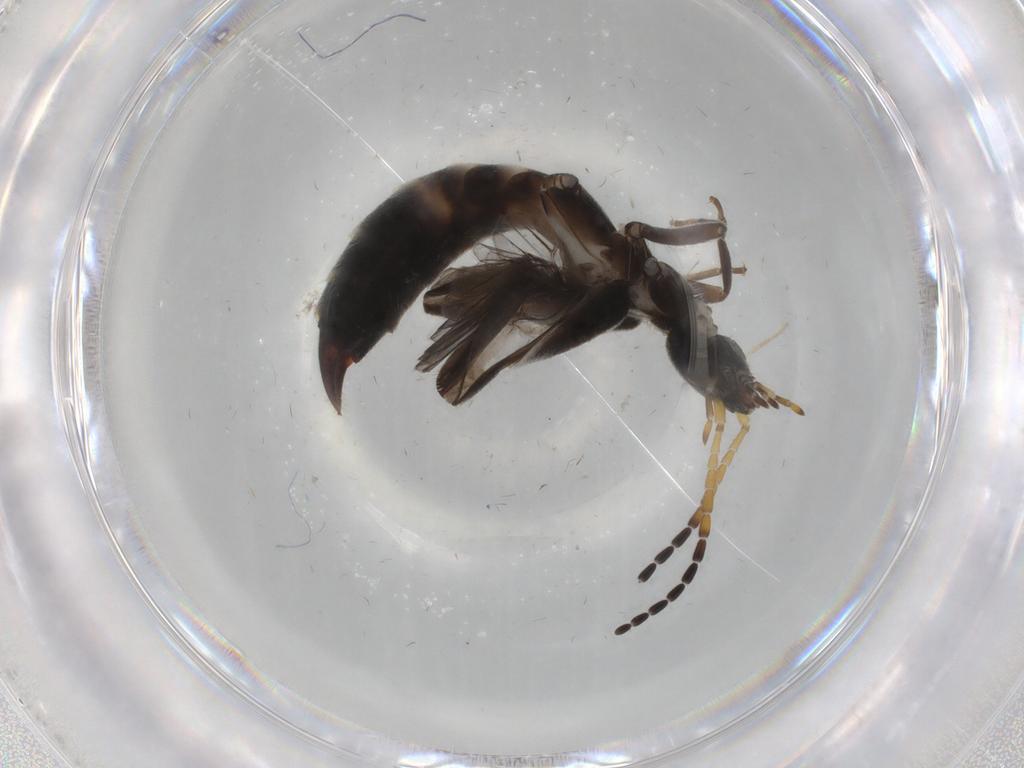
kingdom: Animalia
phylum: Arthropoda
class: Insecta
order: Dermaptera
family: Forficulidae
